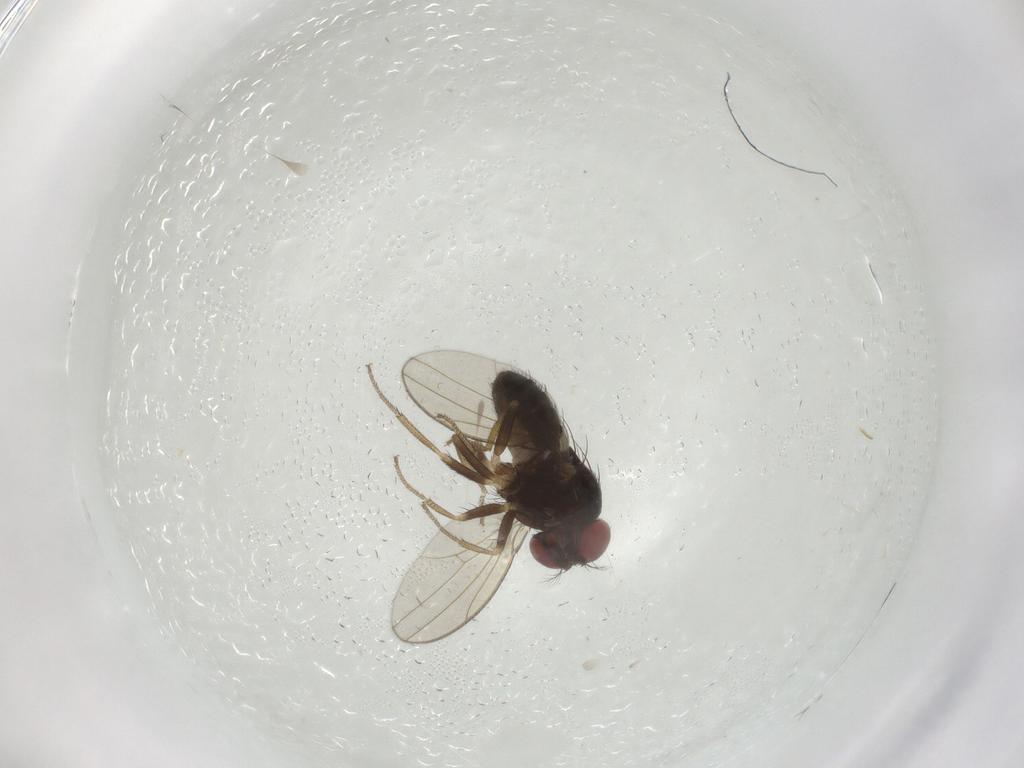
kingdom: Animalia
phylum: Arthropoda
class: Insecta
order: Diptera
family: Drosophilidae
